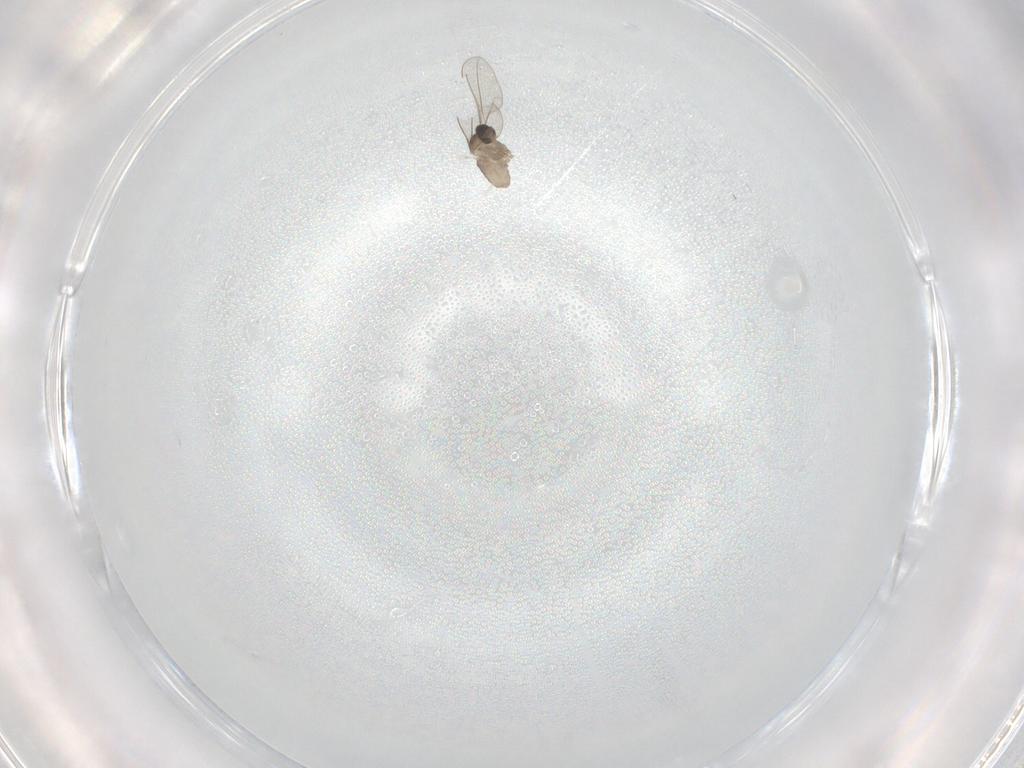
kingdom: Animalia
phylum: Arthropoda
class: Insecta
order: Diptera
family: Cecidomyiidae
